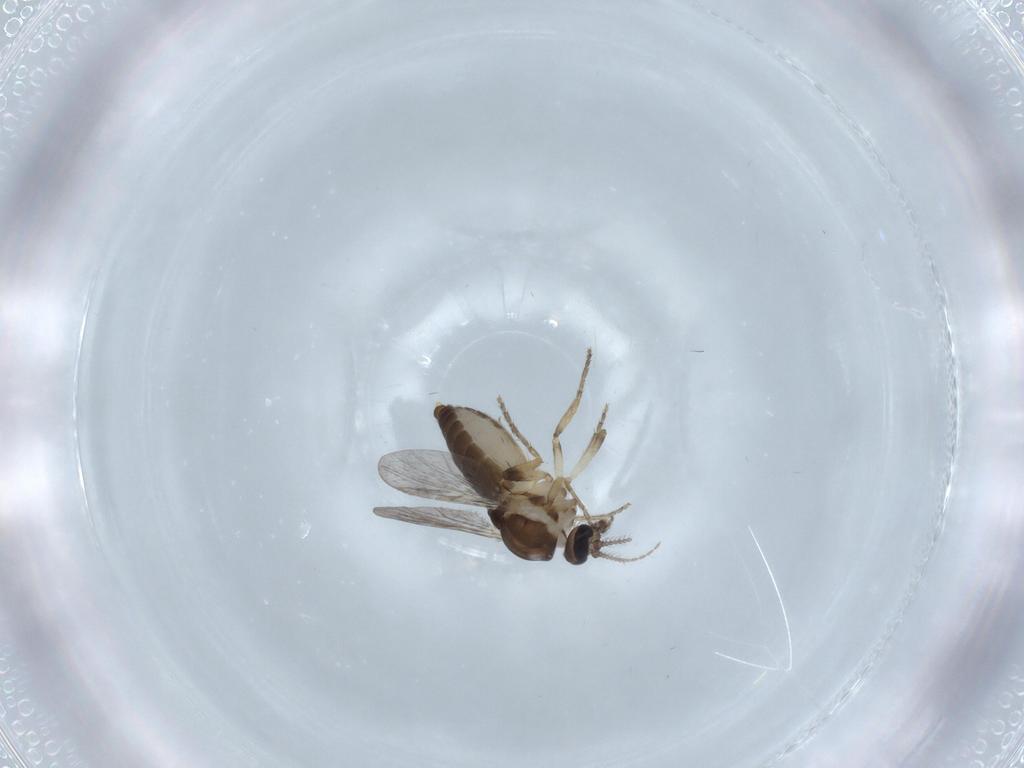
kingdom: Animalia
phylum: Arthropoda
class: Insecta
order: Diptera
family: Ceratopogonidae
